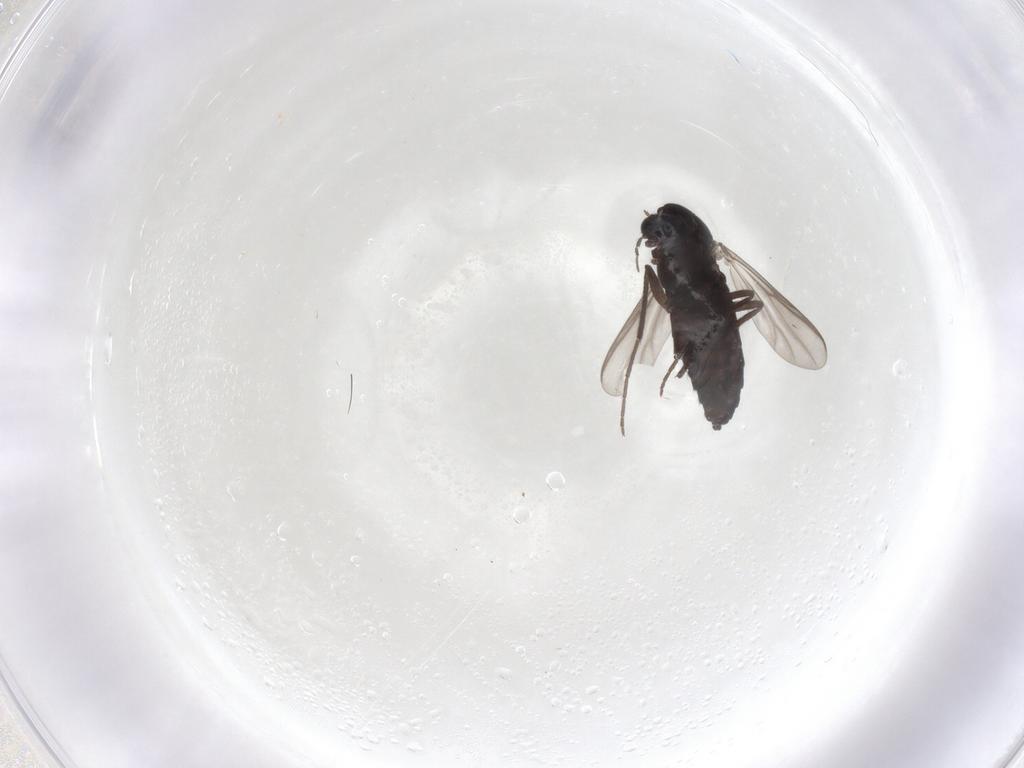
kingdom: Animalia
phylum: Arthropoda
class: Insecta
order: Diptera
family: Chironomidae
